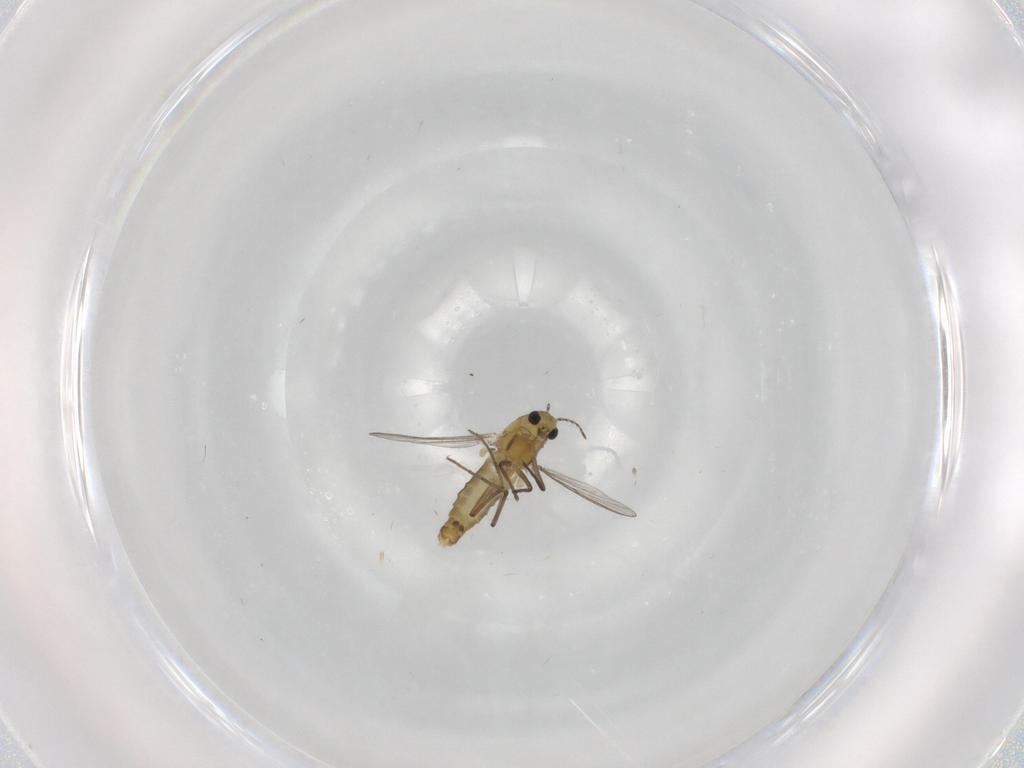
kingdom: Animalia
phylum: Arthropoda
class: Insecta
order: Diptera
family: Chironomidae
